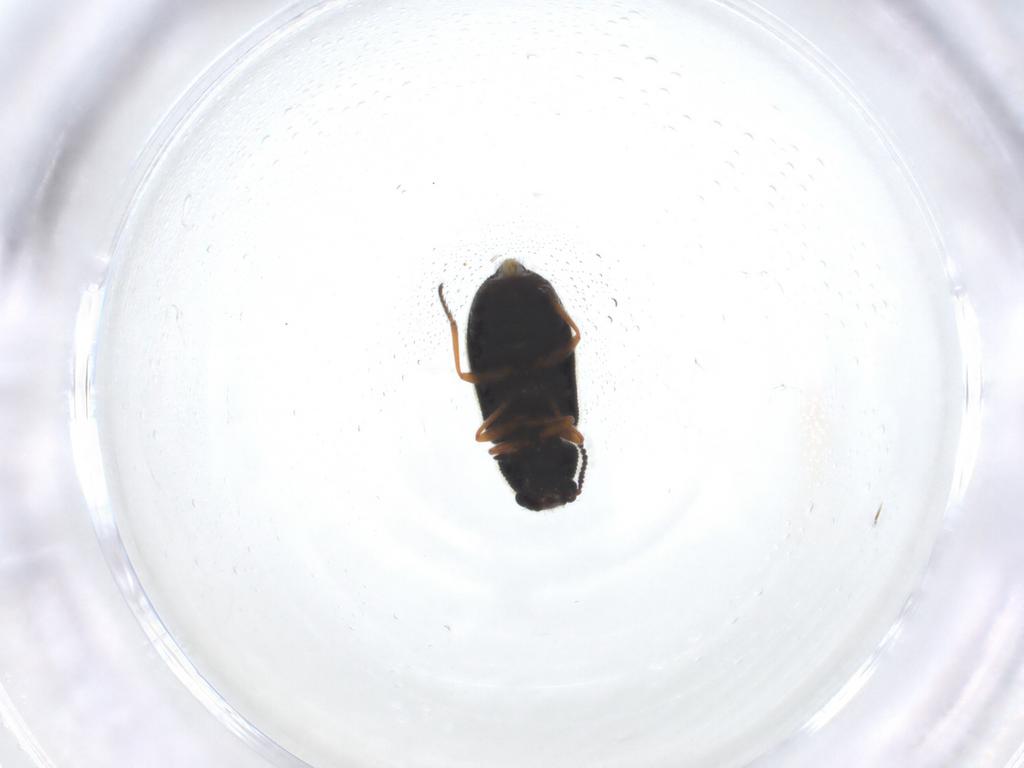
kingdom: Animalia
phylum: Arthropoda
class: Insecta
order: Coleoptera
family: Melyridae
